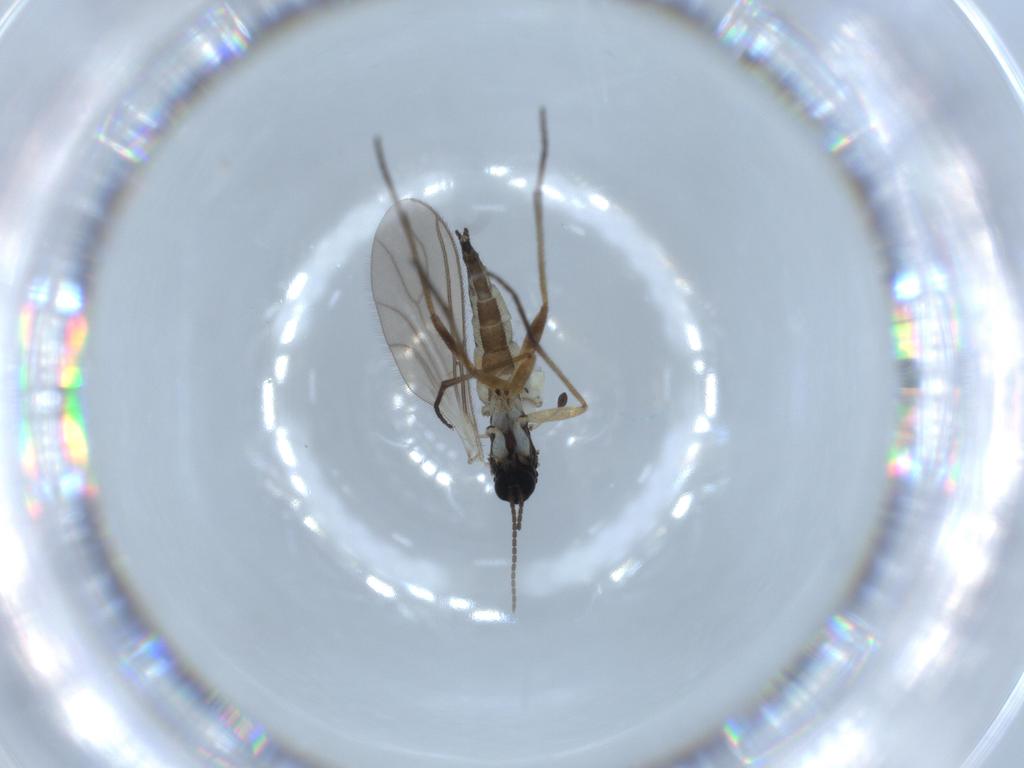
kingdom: Animalia
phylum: Arthropoda
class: Insecta
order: Diptera
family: Sciaridae
